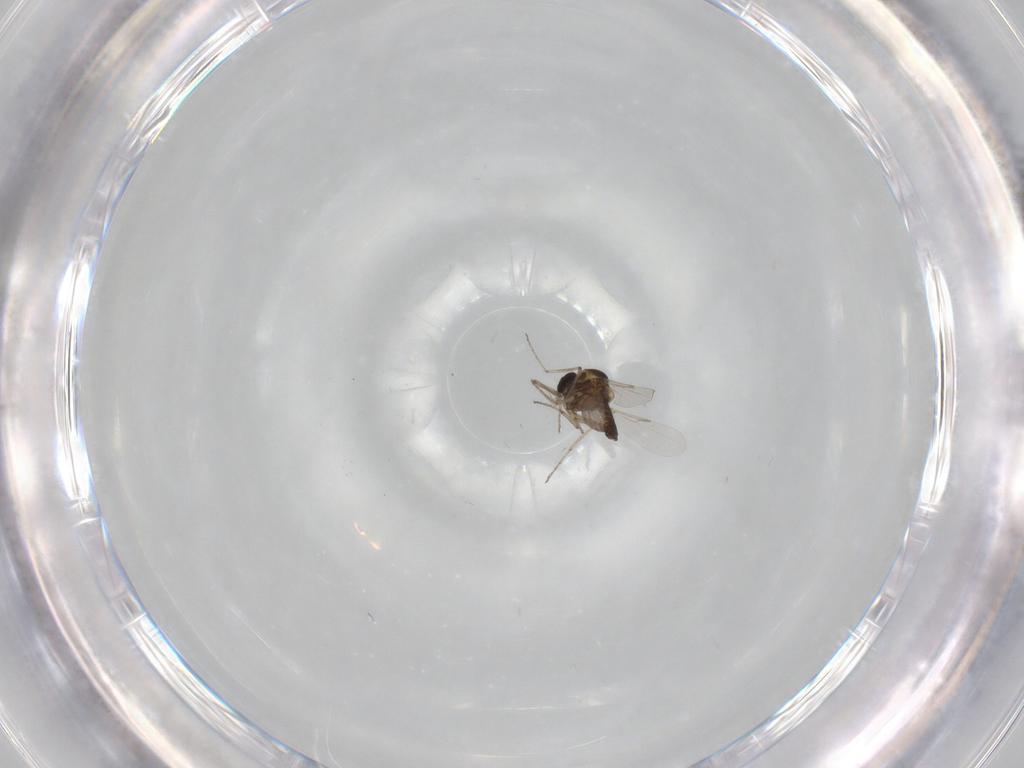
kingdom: Animalia
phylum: Arthropoda
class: Insecta
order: Diptera
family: Ceratopogonidae
